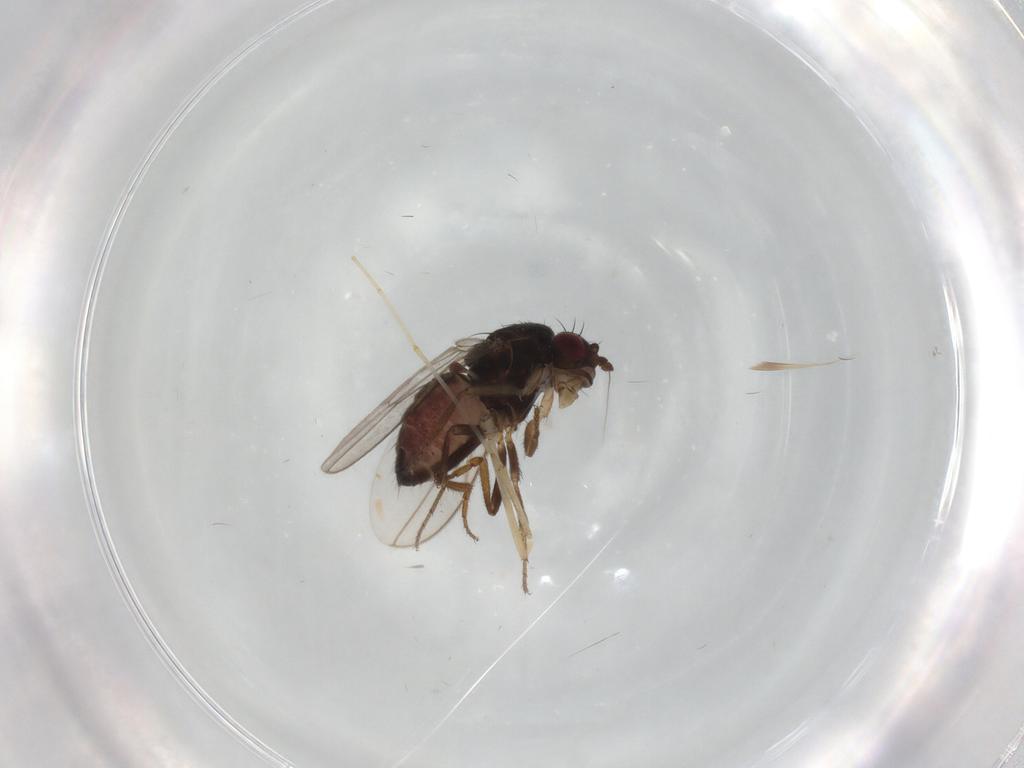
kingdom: Animalia
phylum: Arthropoda
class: Insecta
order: Diptera
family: Sphaeroceridae
